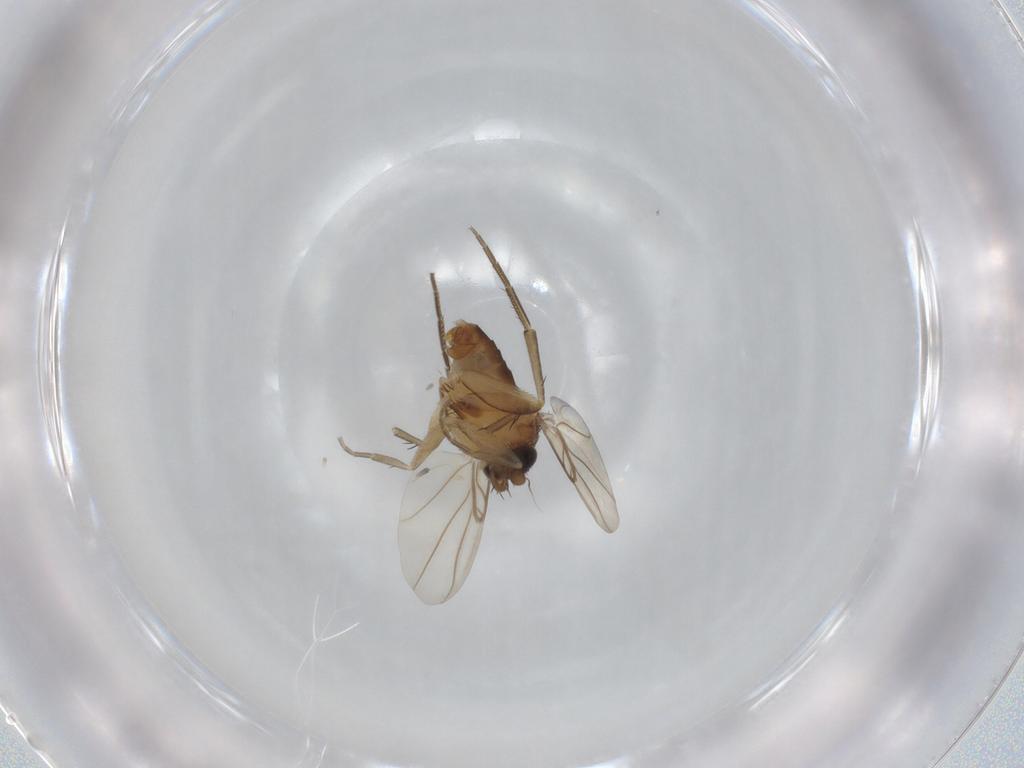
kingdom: Animalia
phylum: Arthropoda
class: Insecta
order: Diptera
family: Phoridae
